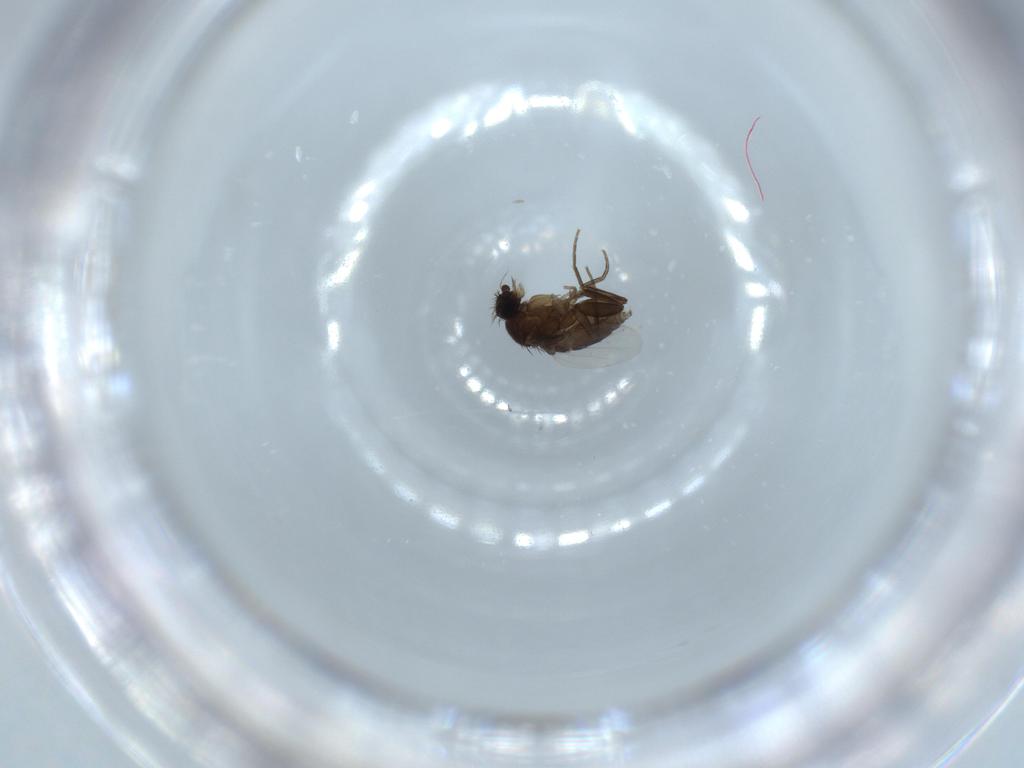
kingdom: Animalia
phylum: Arthropoda
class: Insecta
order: Diptera
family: Phoridae
